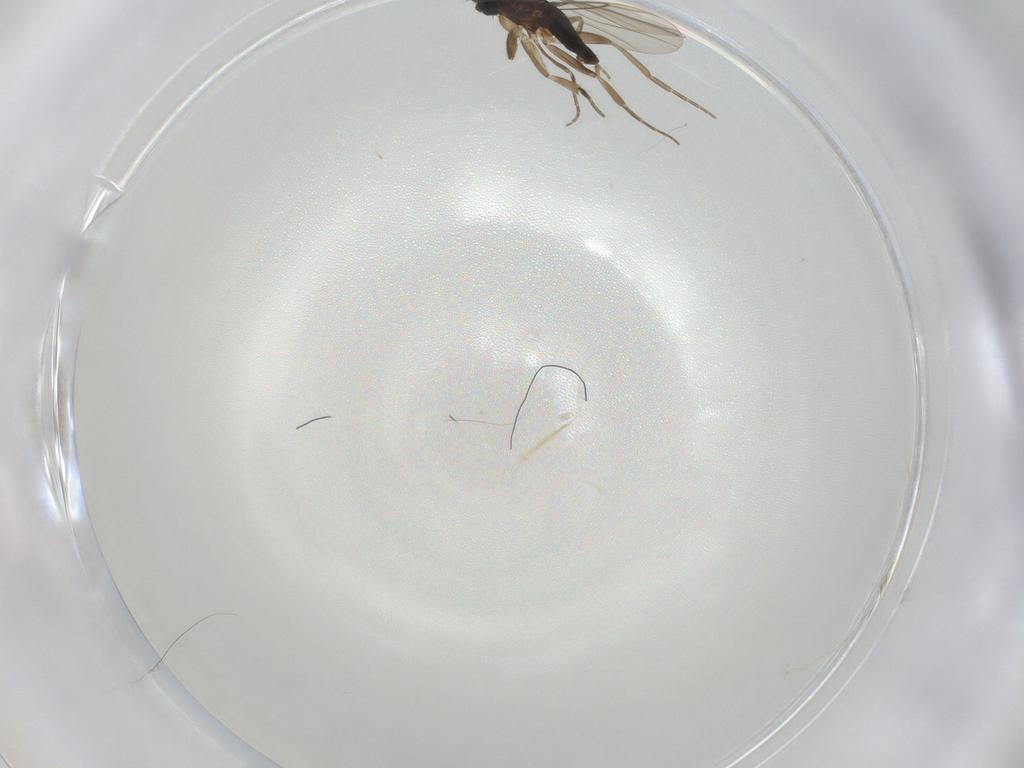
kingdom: Animalia
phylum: Arthropoda
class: Insecta
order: Diptera
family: Phoridae
